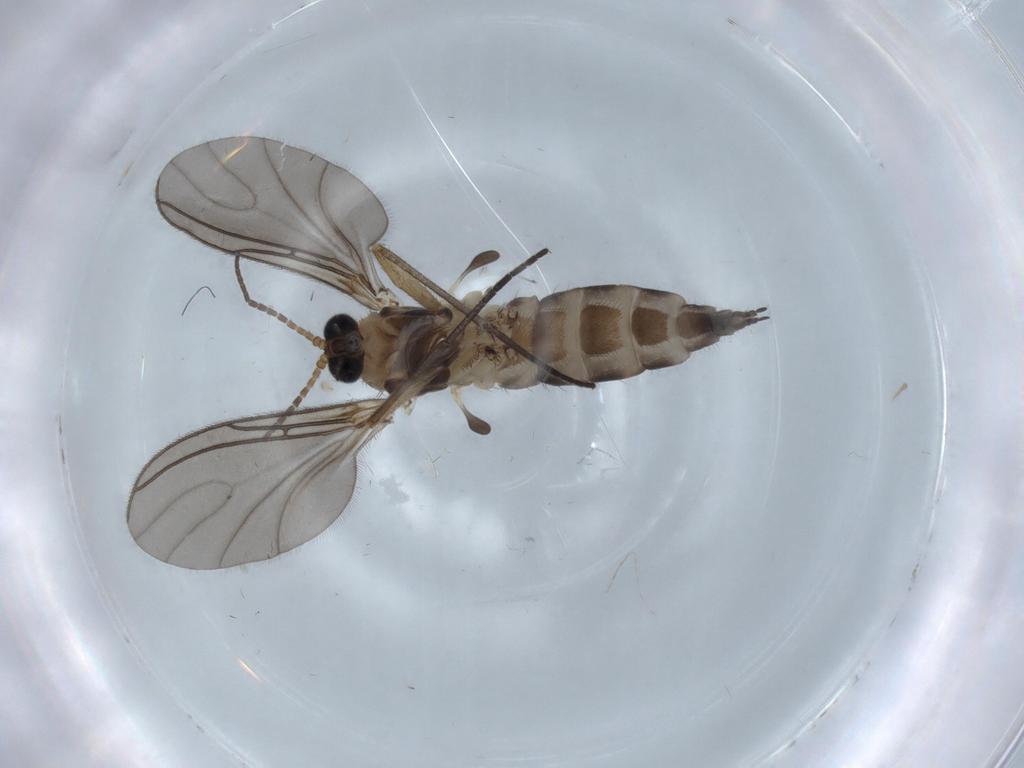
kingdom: Animalia
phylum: Arthropoda
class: Insecta
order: Diptera
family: Sciaridae
